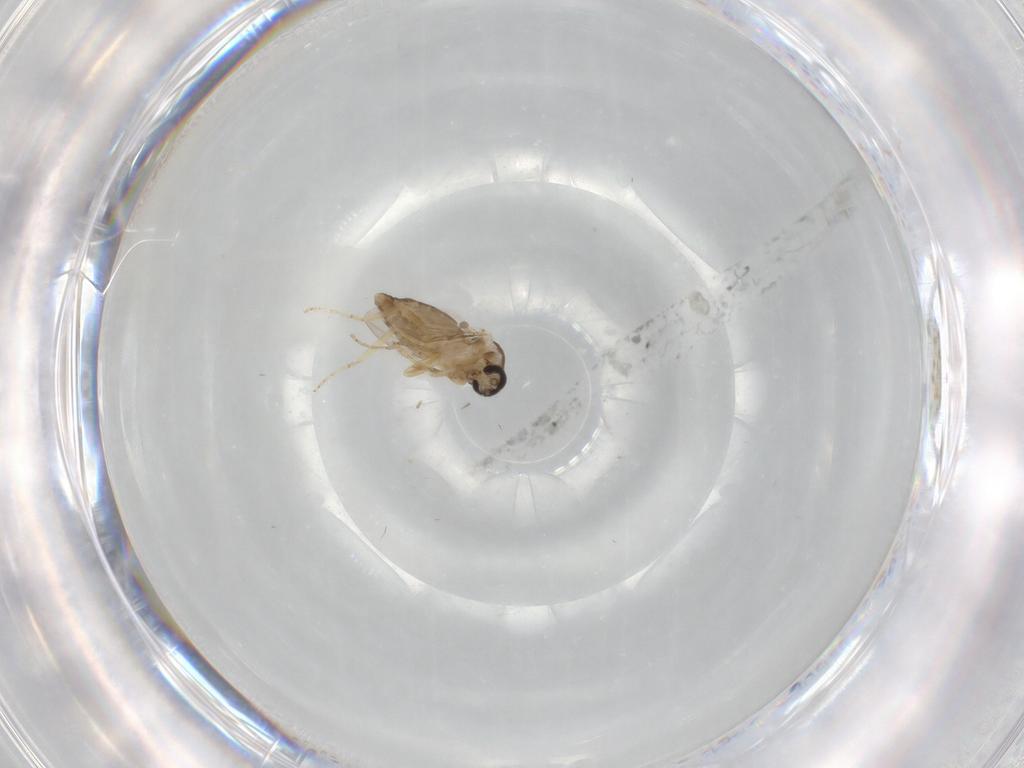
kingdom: Animalia
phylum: Arthropoda
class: Insecta
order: Diptera
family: Ceratopogonidae
